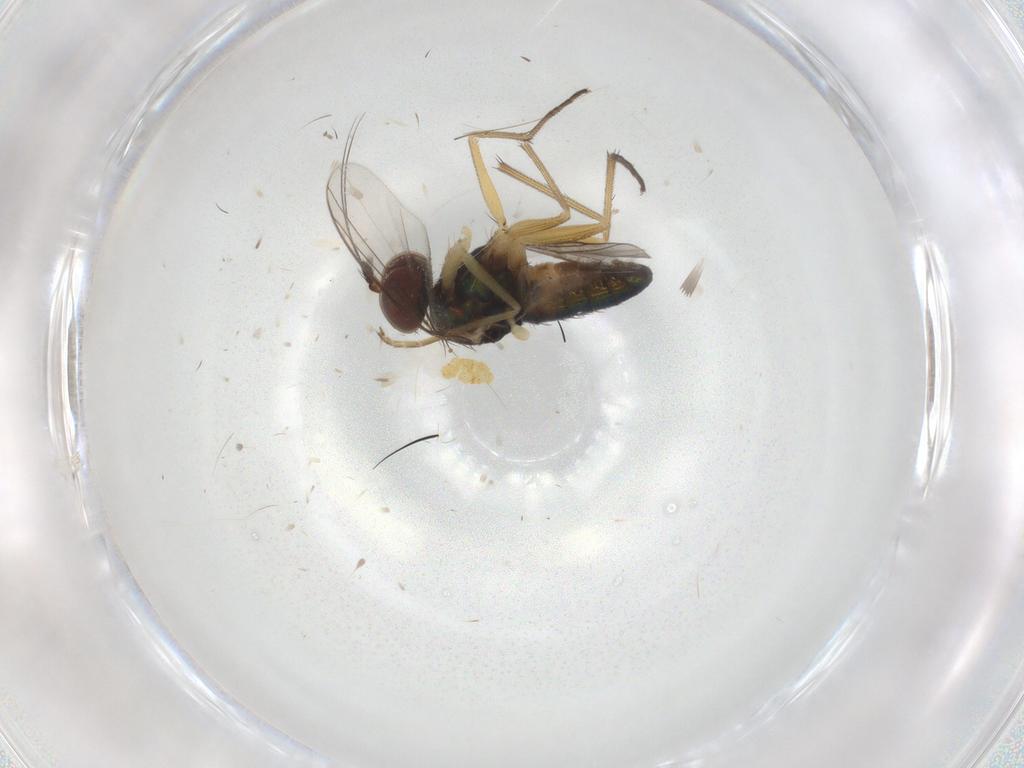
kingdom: Animalia
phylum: Arthropoda
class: Insecta
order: Diptera
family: Dolichopodidae
